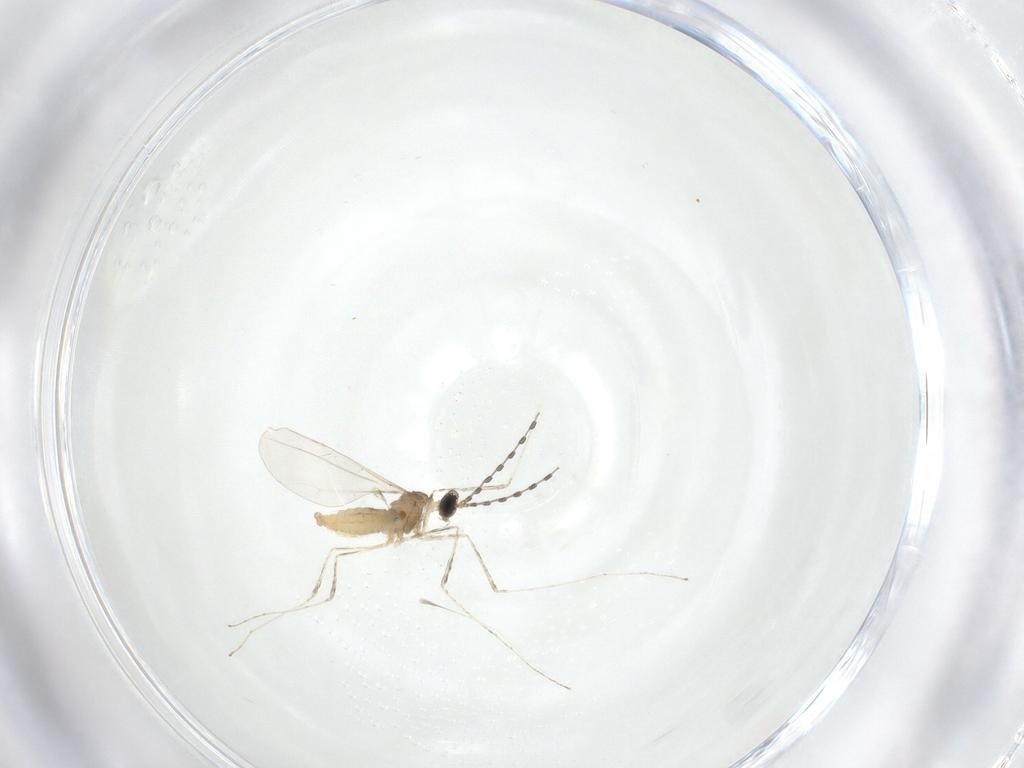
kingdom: Animalia
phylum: Arthropoda
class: Insecta
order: Diptera
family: Cecidomyiidae
